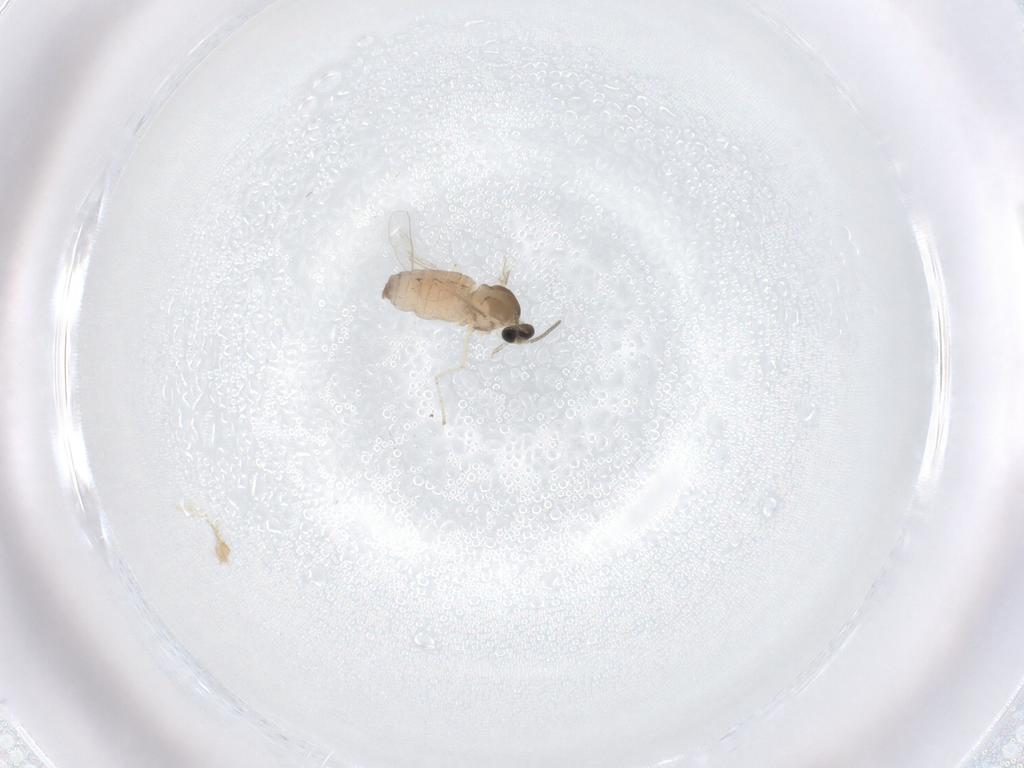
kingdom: Animalia
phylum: Arthropoda
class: Insecta
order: Diptera
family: Cecidomyiidae
